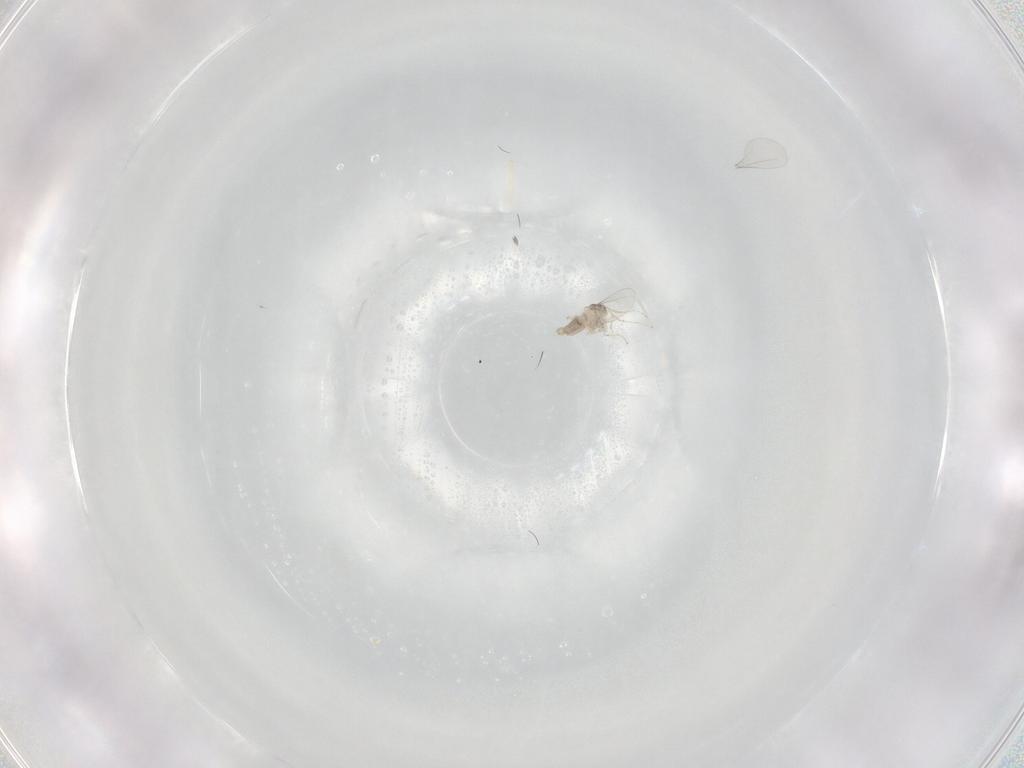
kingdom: Animalia
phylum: Arthropoda
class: Insecta
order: Diptera
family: Cecidomyiidae
